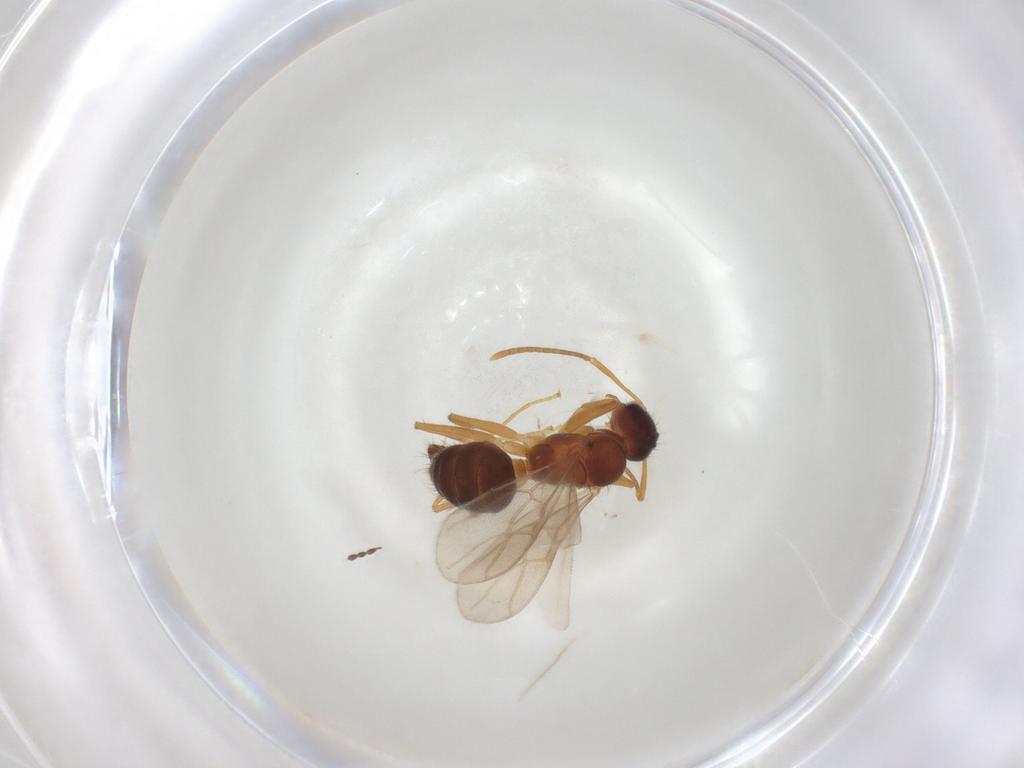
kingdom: Animalia
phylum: Arthropoda
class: Insecta
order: Hymenoptera
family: Formicidae
